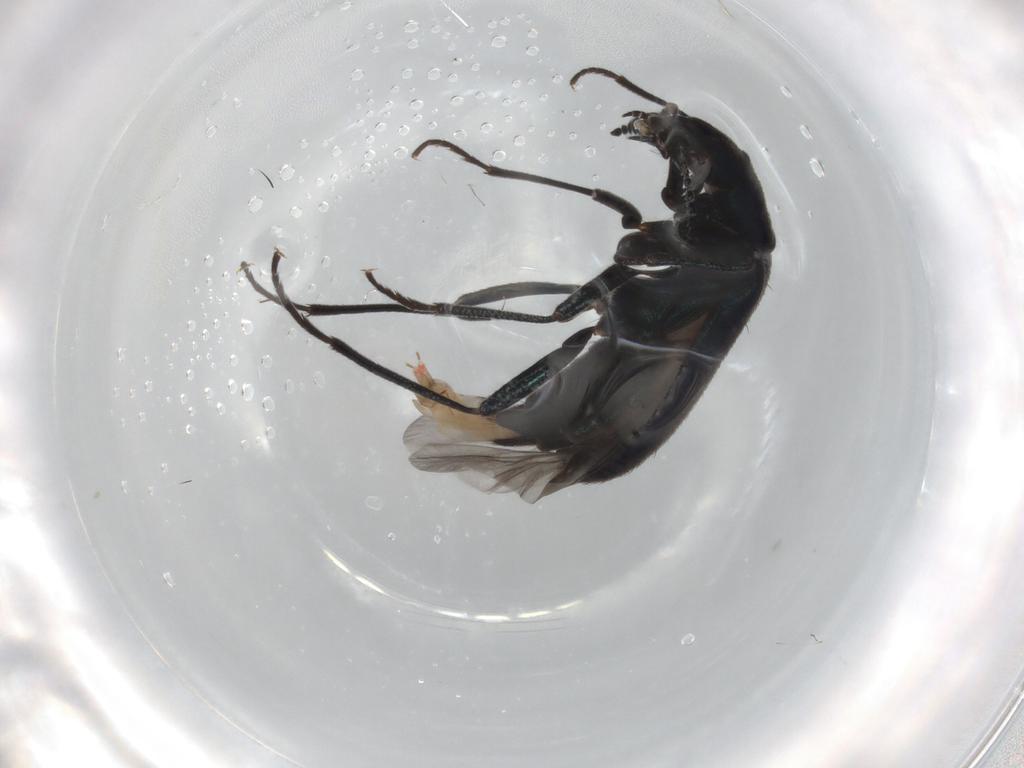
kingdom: Animalia
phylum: Arthropoda
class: Insecta
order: Coleoptera
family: Melyridae
